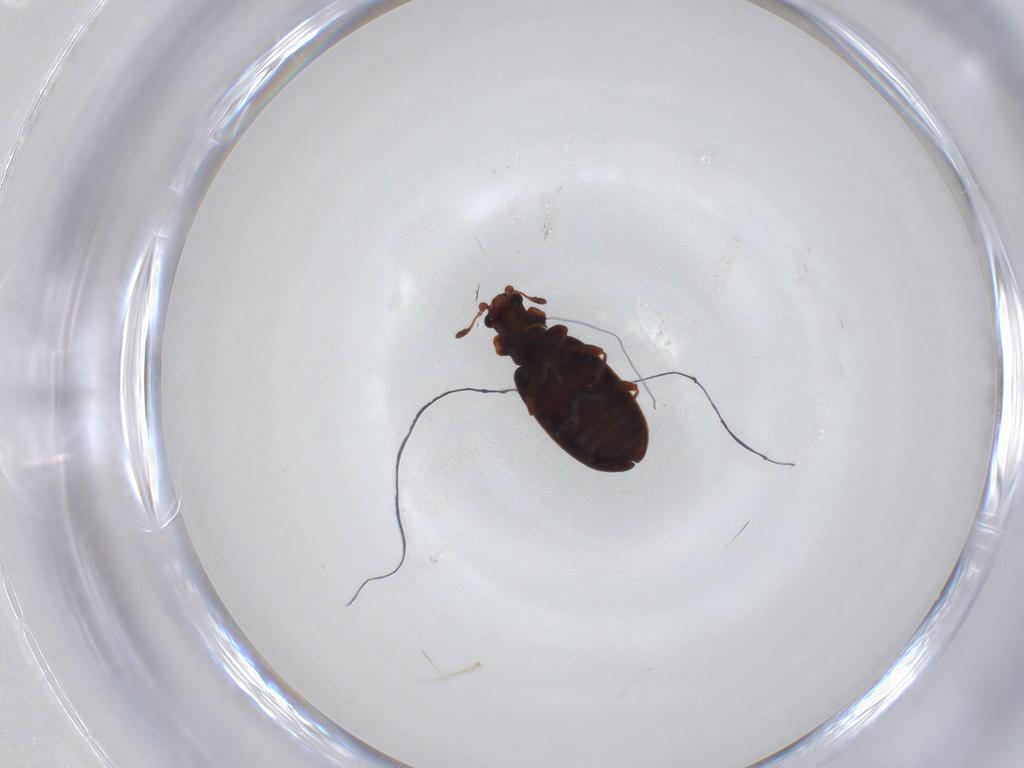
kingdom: Animalia
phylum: Arthropoda
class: Insecta
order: Coleoptera
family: Latridiidae
